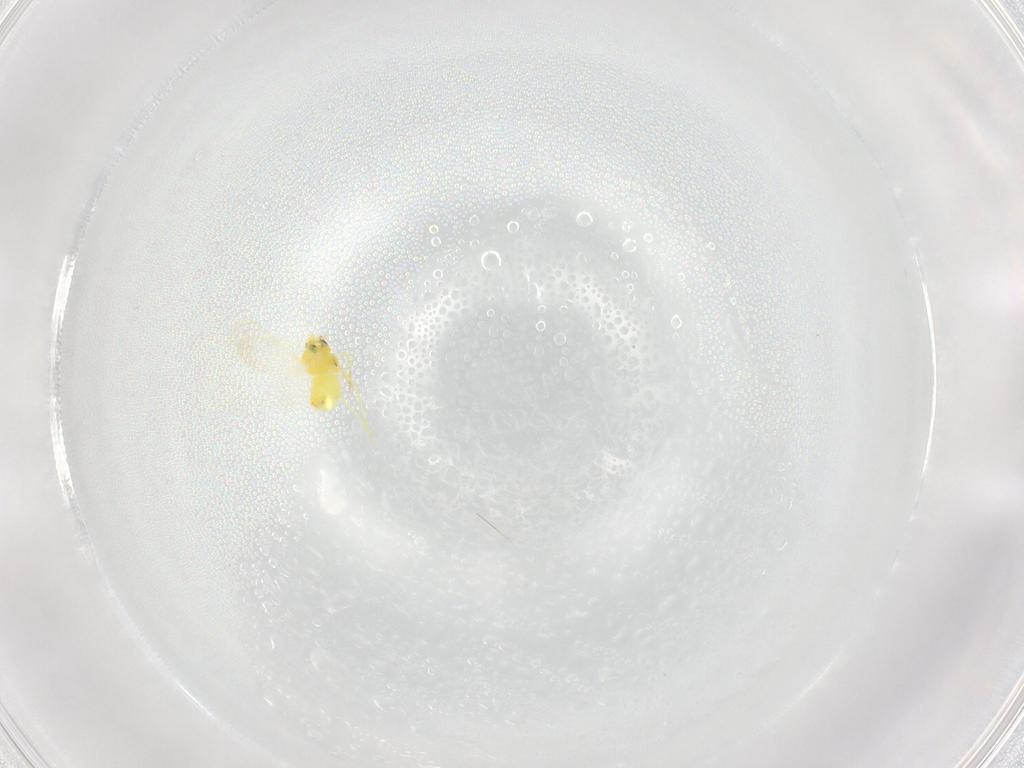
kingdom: Animalia
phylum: Arthropoda
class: Insecta
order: Hemiptera
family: Aleyrodidae
